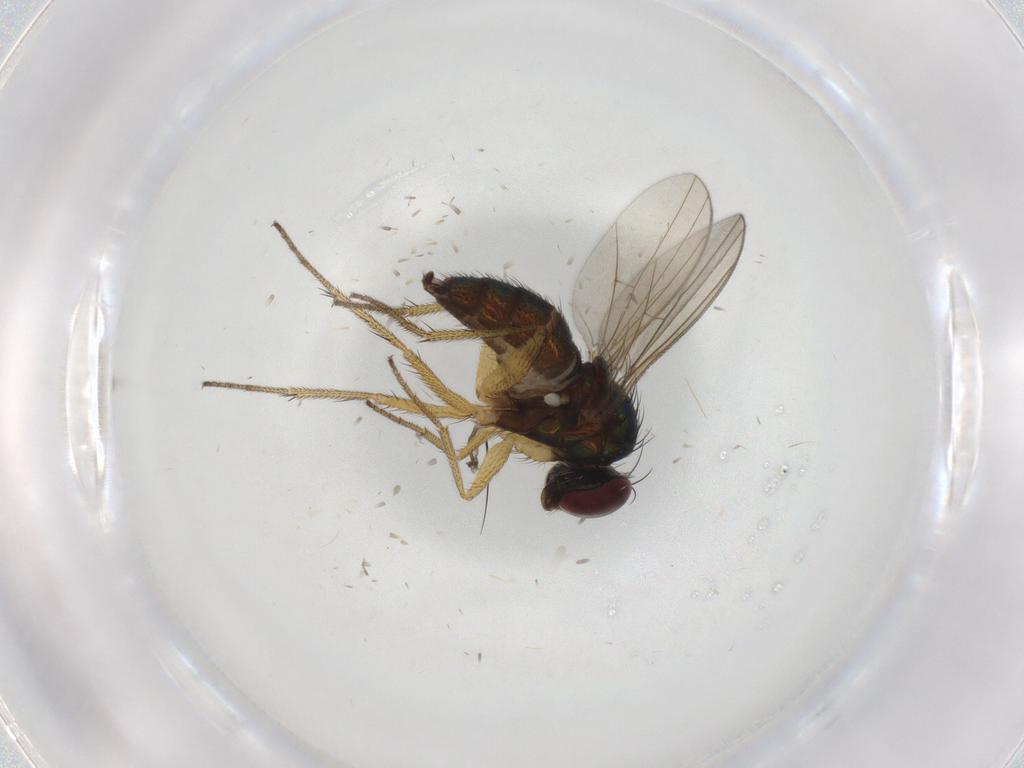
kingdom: Animalia
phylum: Arthropoda
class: Insecta
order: Diptera
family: Dolichopodidae
